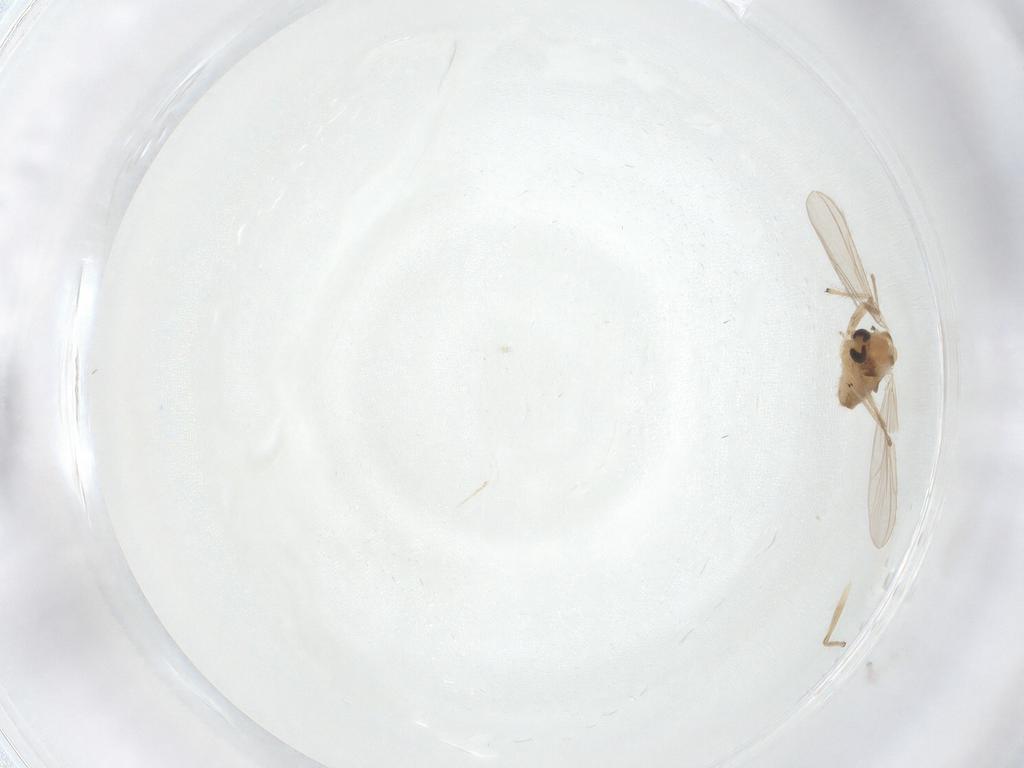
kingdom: Animalia
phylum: Arthropoda
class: Insecta
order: Diptera
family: Chironomidae
